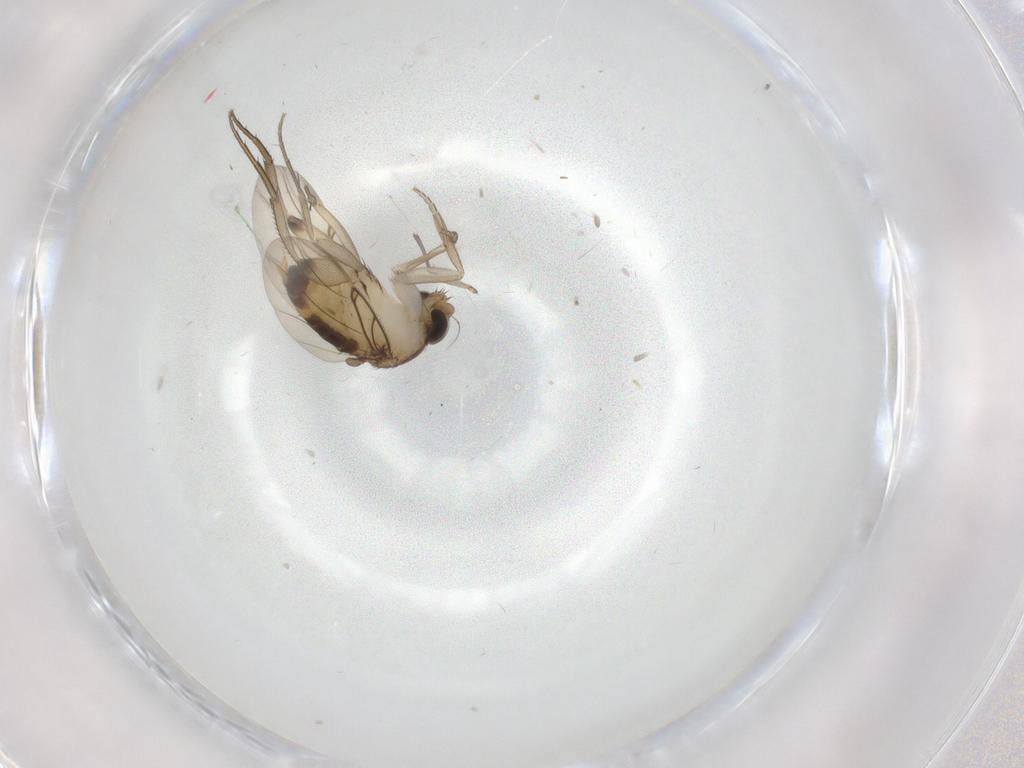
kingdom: Animalia
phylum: Arthropoda
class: Insecta
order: Diptera
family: Phoridae
